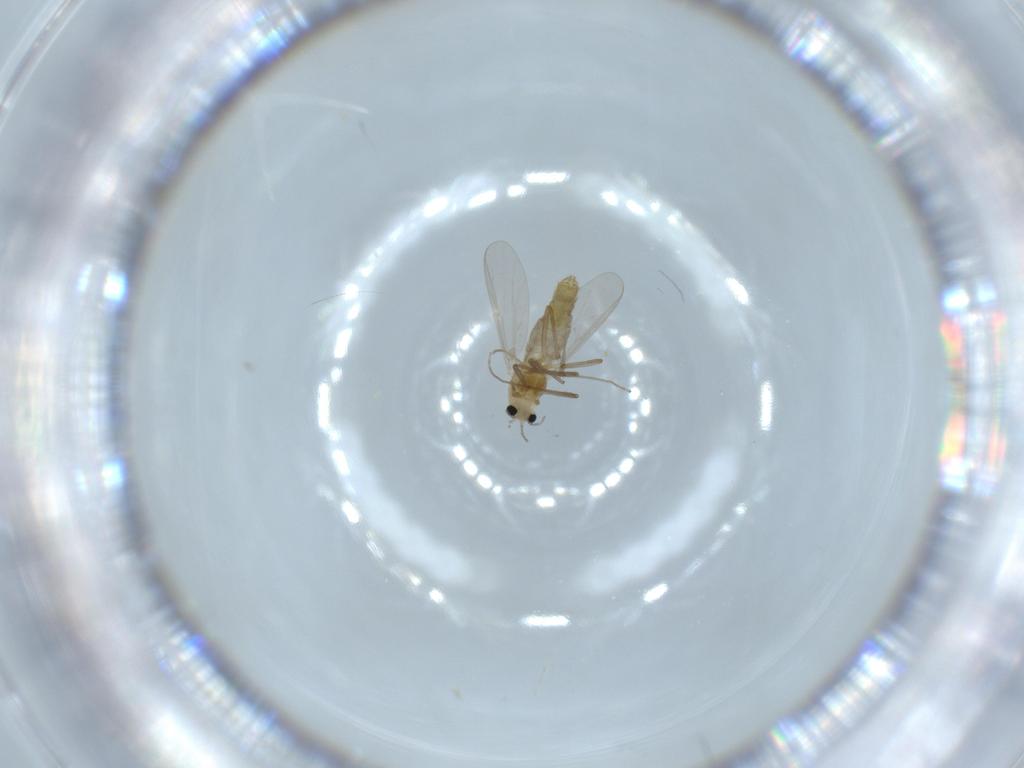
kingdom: Animalia
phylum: Arthropoda
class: Insecta
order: Diptera
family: Chironomidae
